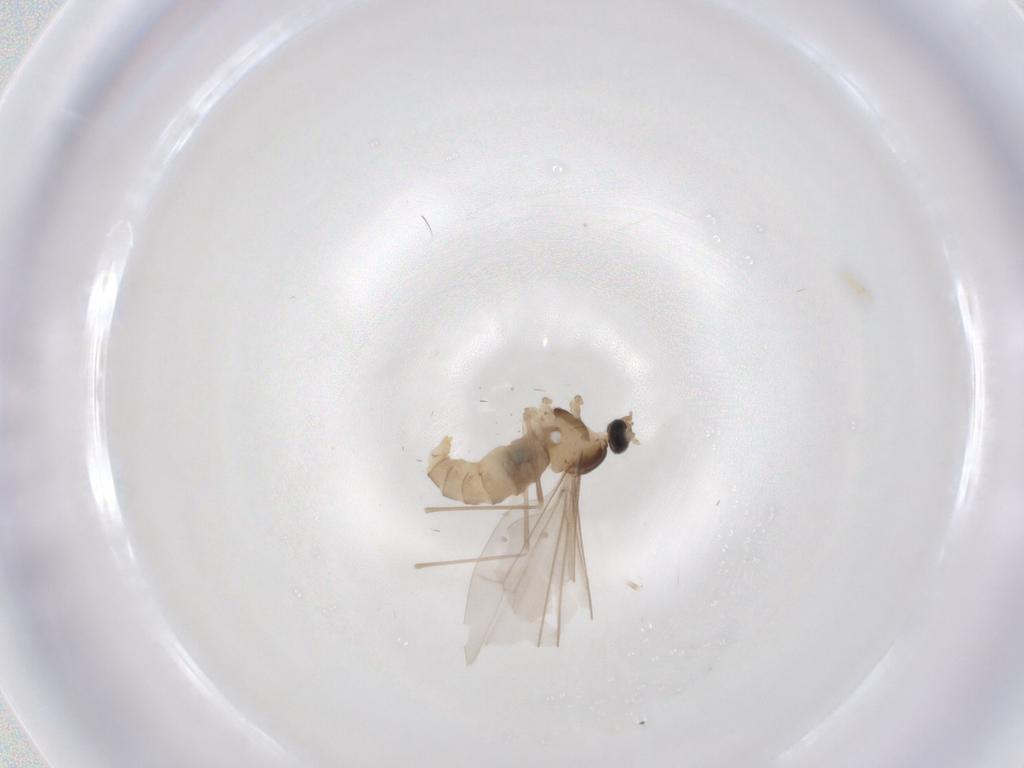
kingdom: Animalia
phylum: Arthropoda
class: Insecta
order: Diptera
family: Cecidomyiidae
